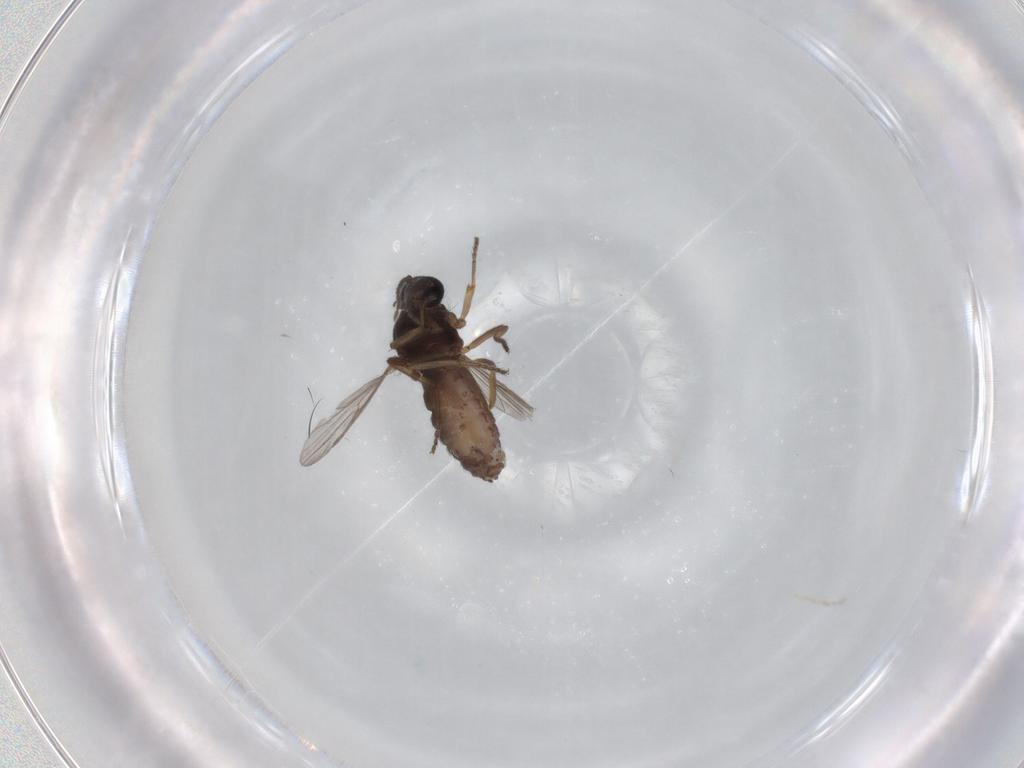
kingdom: Animalia
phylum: Arthropoda
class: Insecta
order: Diptera
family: Ceratopogonidae
